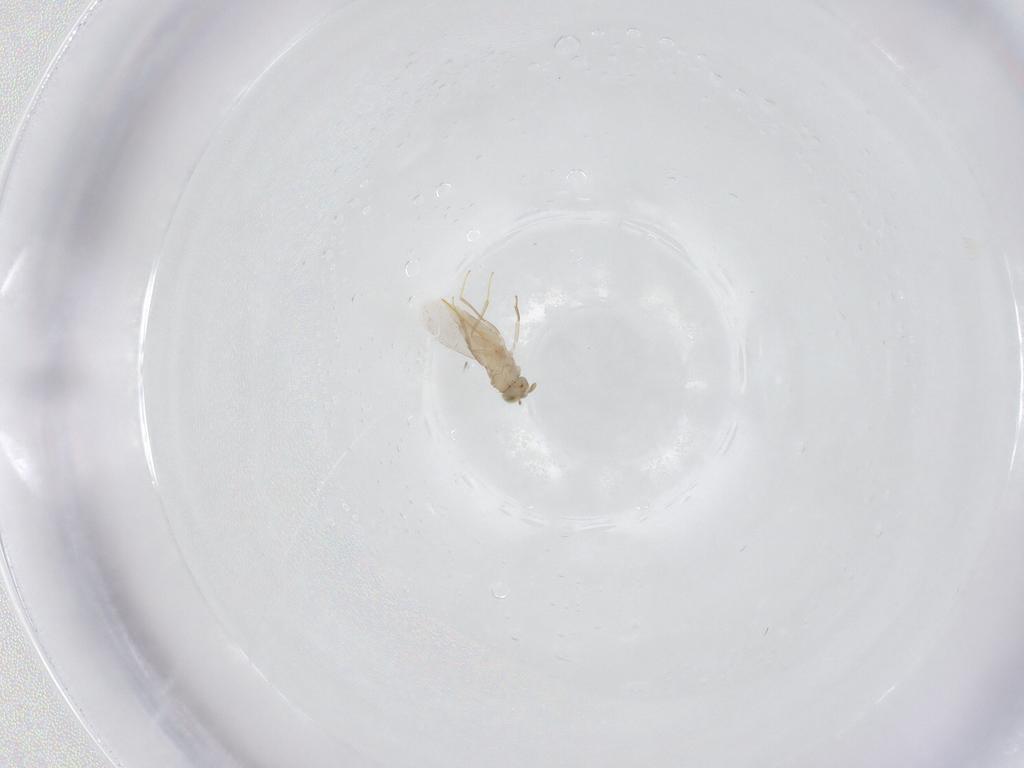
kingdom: Animalia
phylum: Arthropoda
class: Insecta
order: Hymenoptera
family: Aphelinidae
